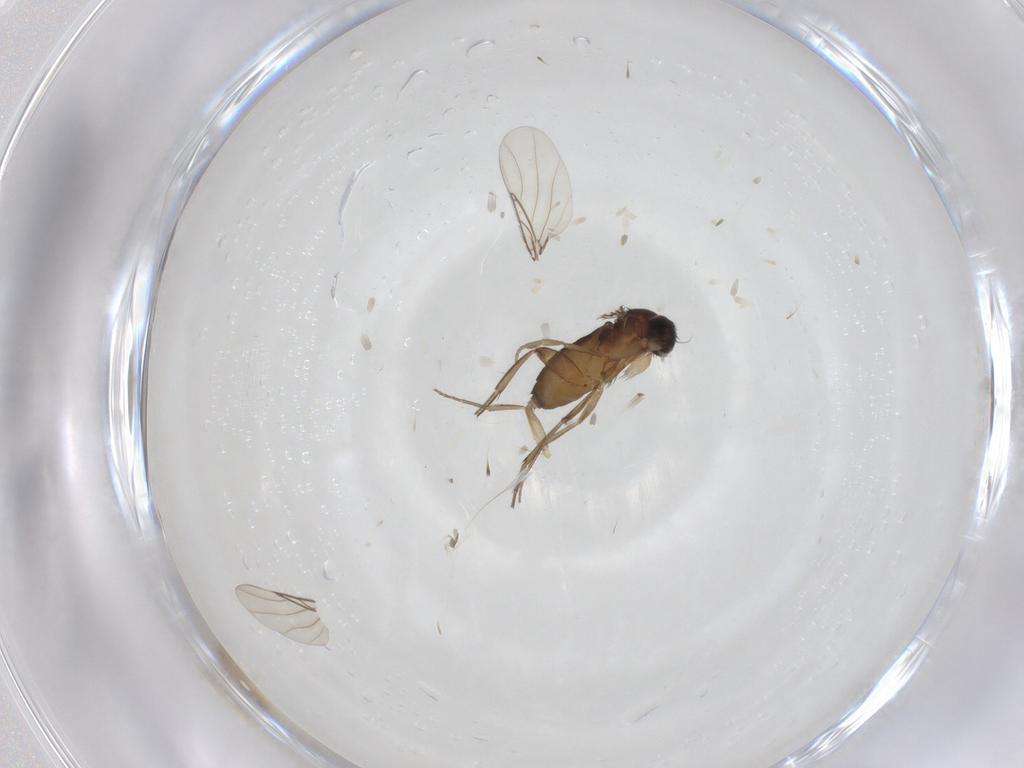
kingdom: Animalia
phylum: Arthropoda
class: Insecta
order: Diptera
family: Phoridae
